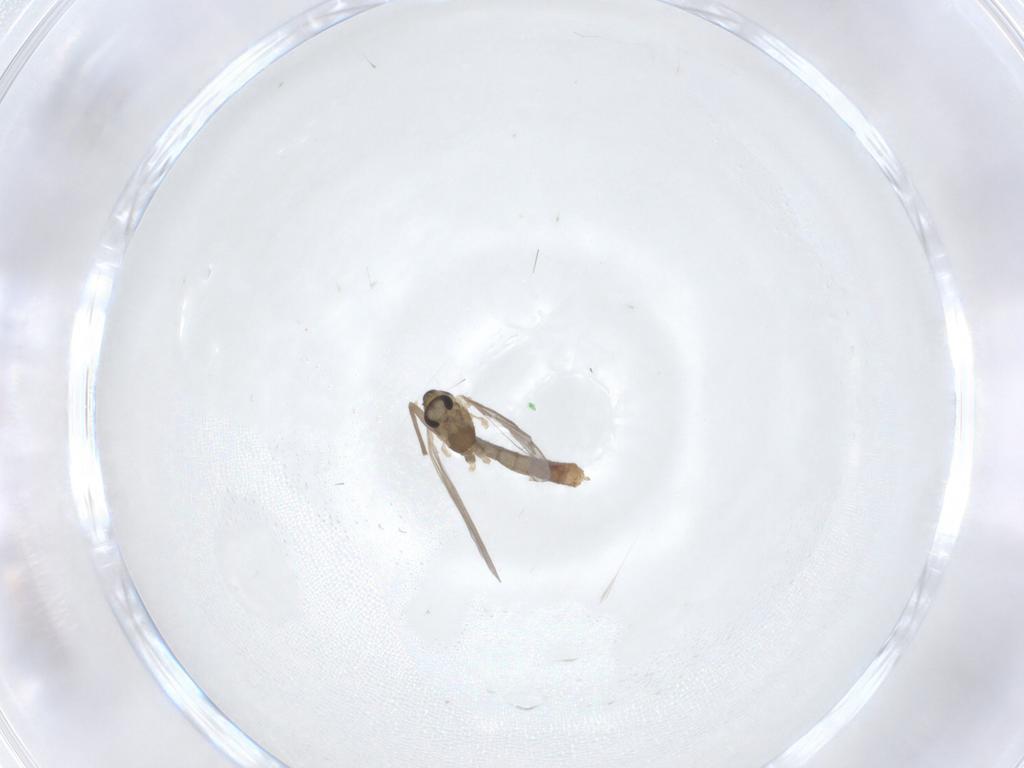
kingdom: Animalia
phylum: Arthropoda
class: Insecta
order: Diptera
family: Chironomidae
